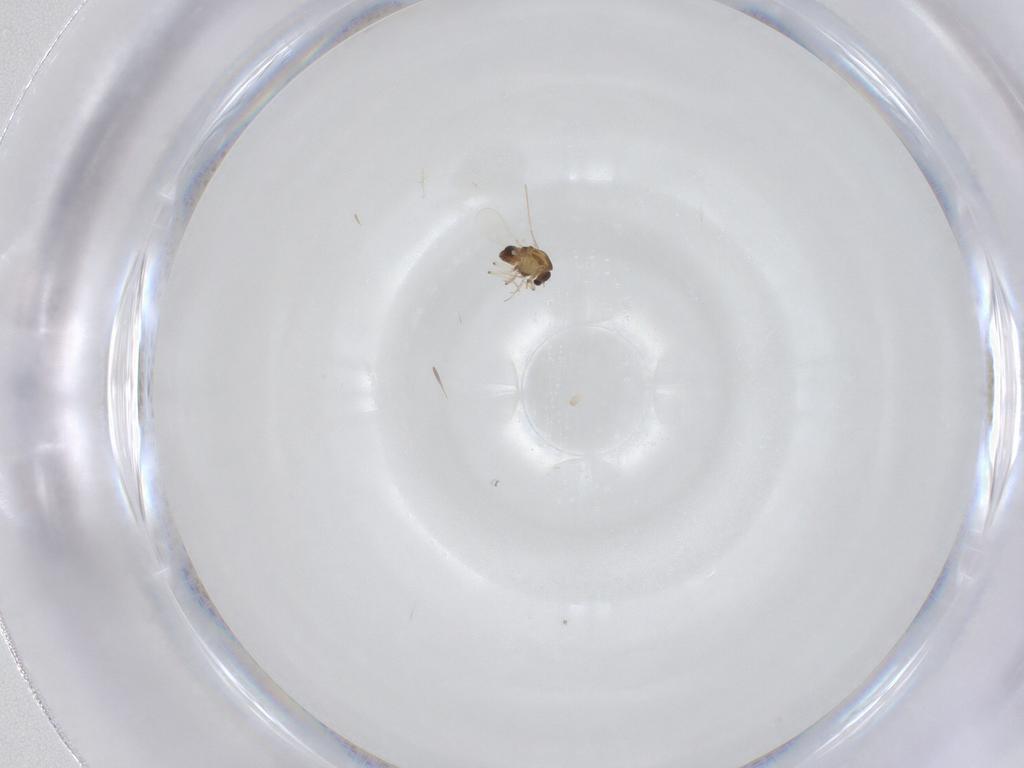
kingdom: Animalia
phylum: Arthropoda
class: Insecta
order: Diptera
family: Chironomidae
